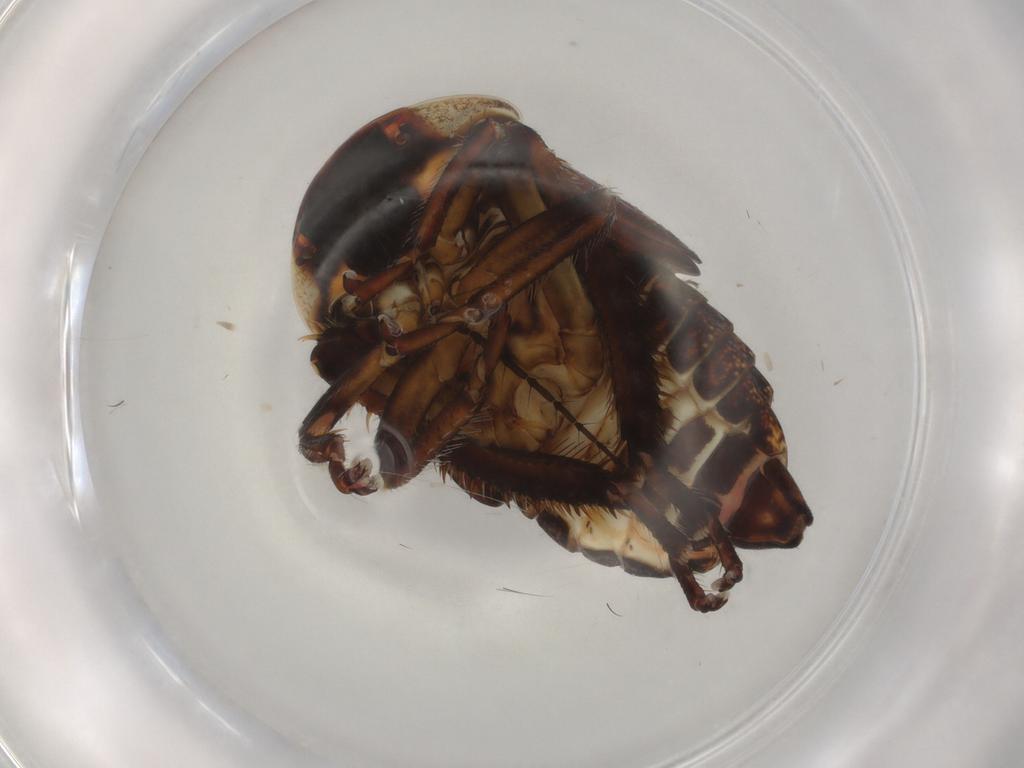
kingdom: Animalia
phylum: Arthropoda
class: Insecta
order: Hemiptera
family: Cicadellidae
